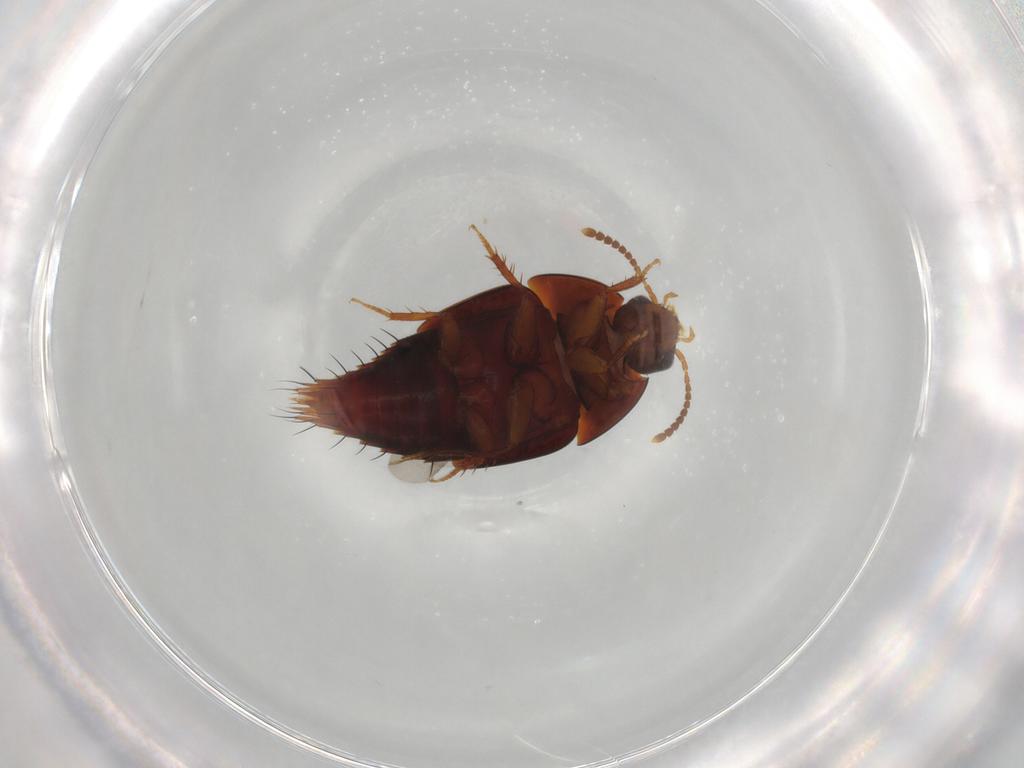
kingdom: Animalia
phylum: Arthropoda
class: Insecta
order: Coleoptera
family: Staphylinidae
